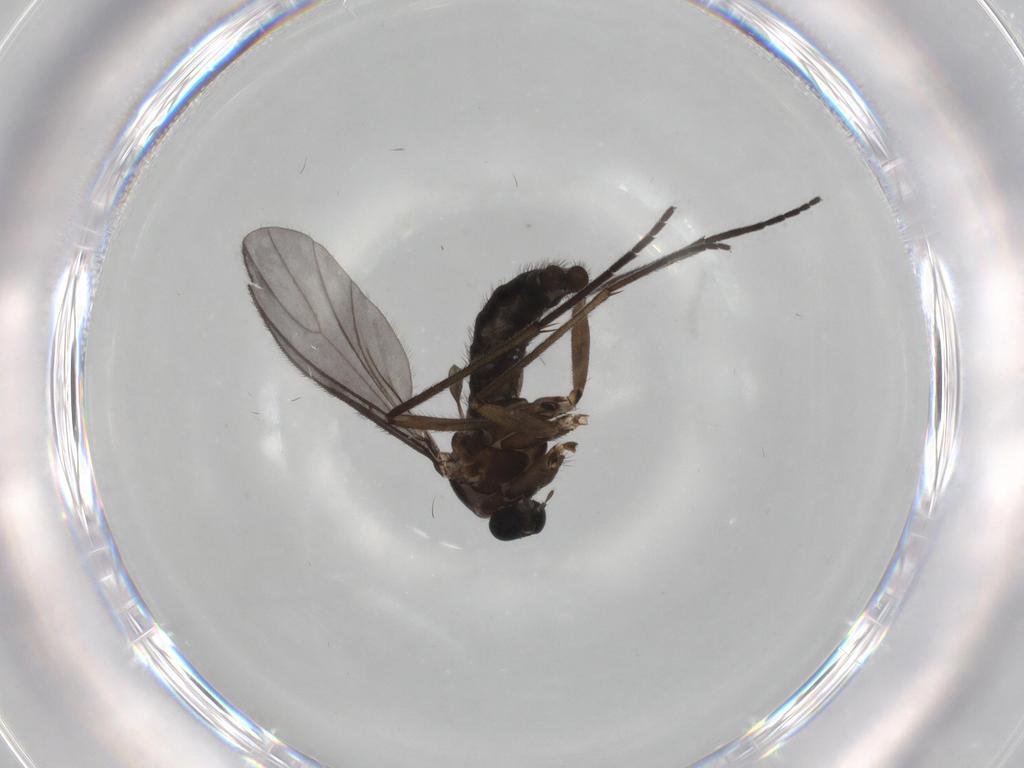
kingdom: Animalia
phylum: Arthropoda
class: Insecta
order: Diptera
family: Sciaridae
